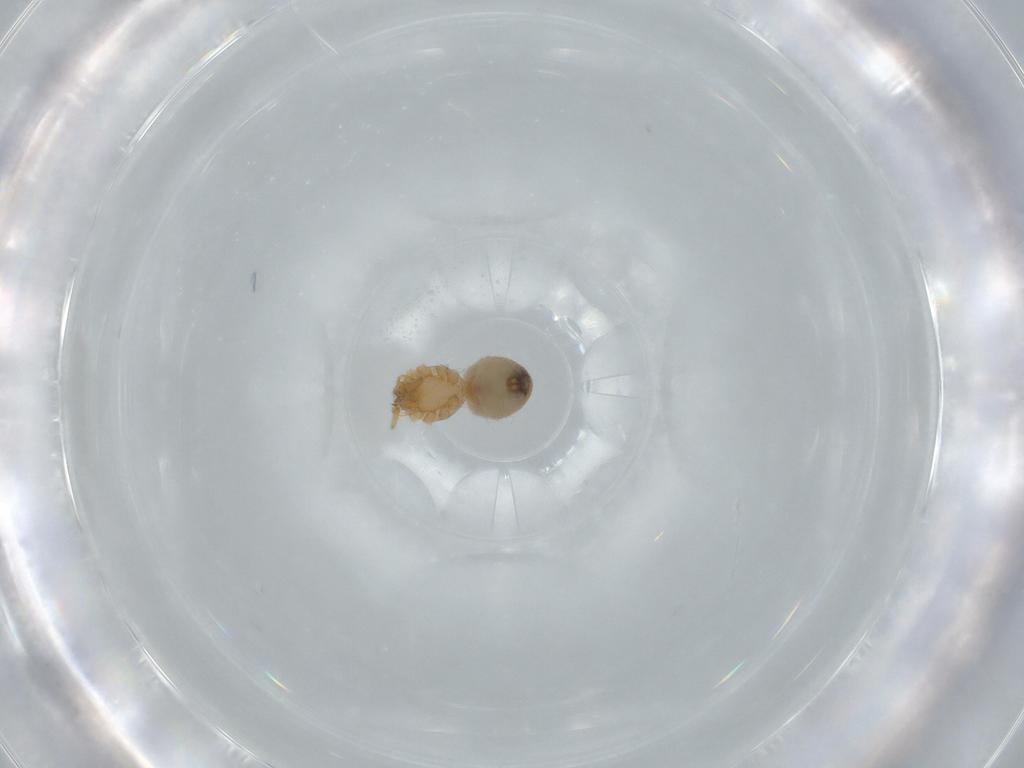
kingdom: Animalia
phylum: Arthropoda
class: Arachnida
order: Araneae
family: Oonopidae
